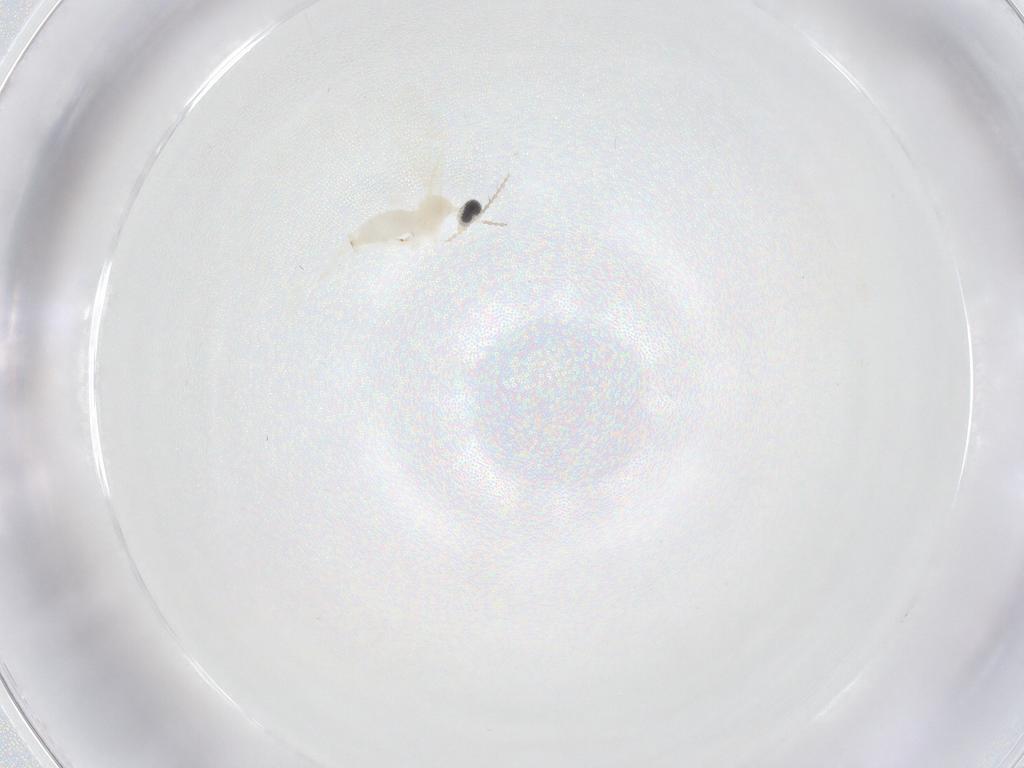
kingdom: Animalia
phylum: Arthropoda
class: Insecta
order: Diptera
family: Cecidomyiidae
